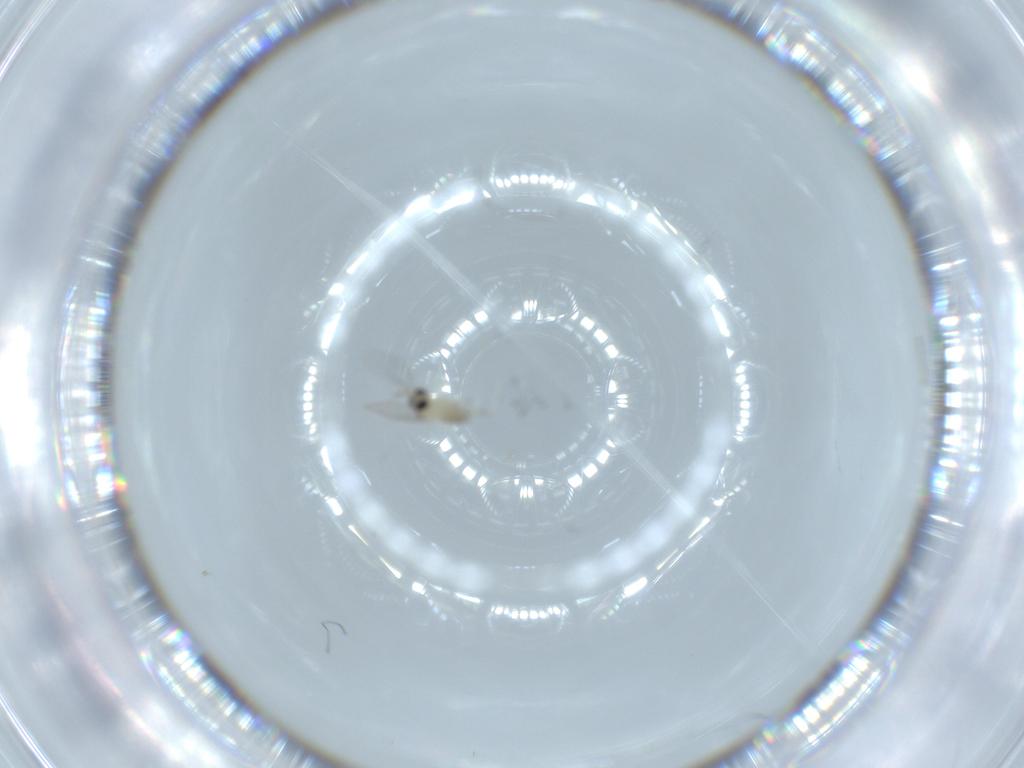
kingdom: Animalia
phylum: Arthropoda
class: Insecta
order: Diptera
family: Cecidomyiidae
